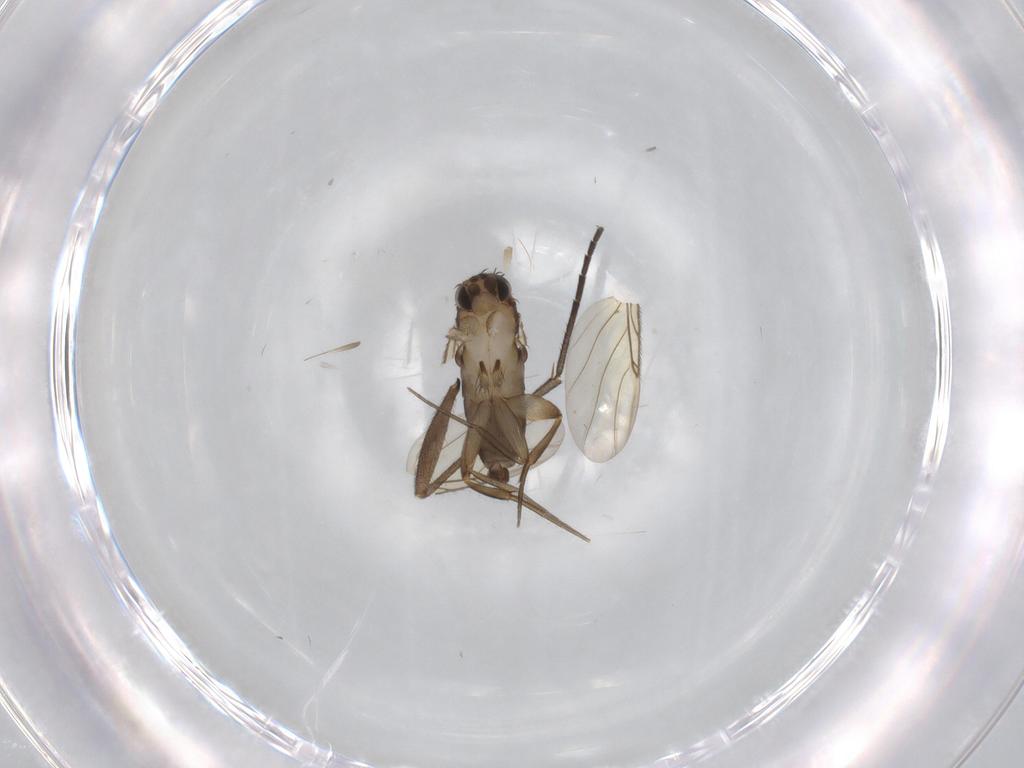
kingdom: Animalia
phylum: Arthropoda
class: Insecta
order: Diptera
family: Phoridae
